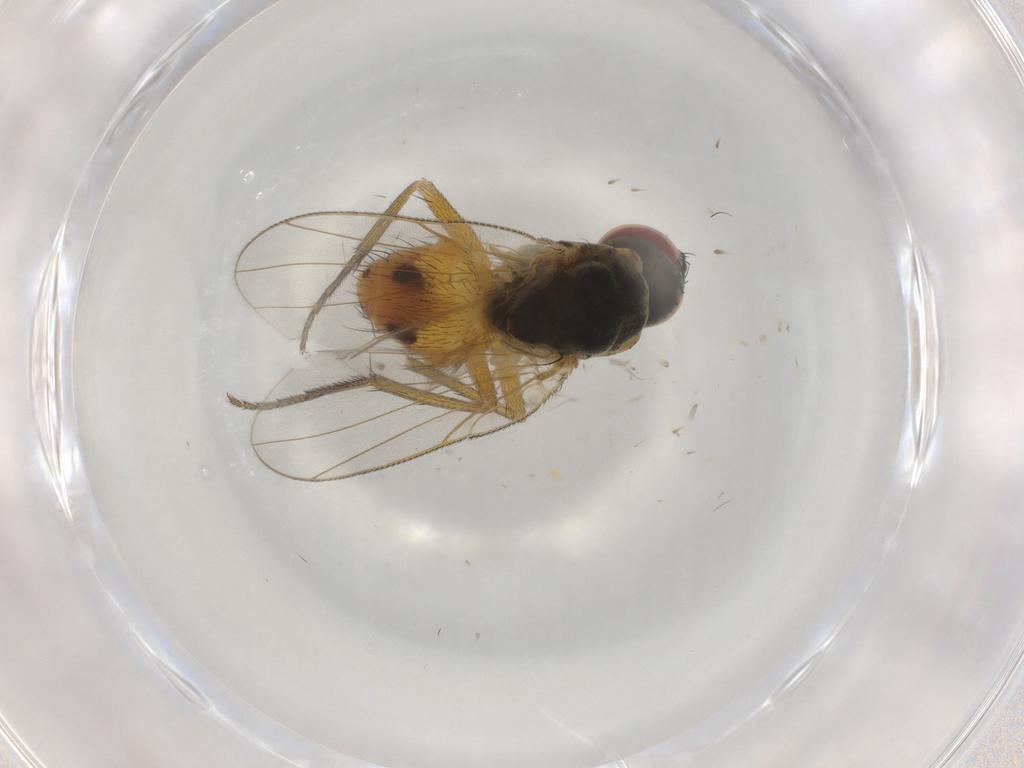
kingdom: Animalia
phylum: Arthropoda
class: Insecta
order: Diptera
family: Muscidae
